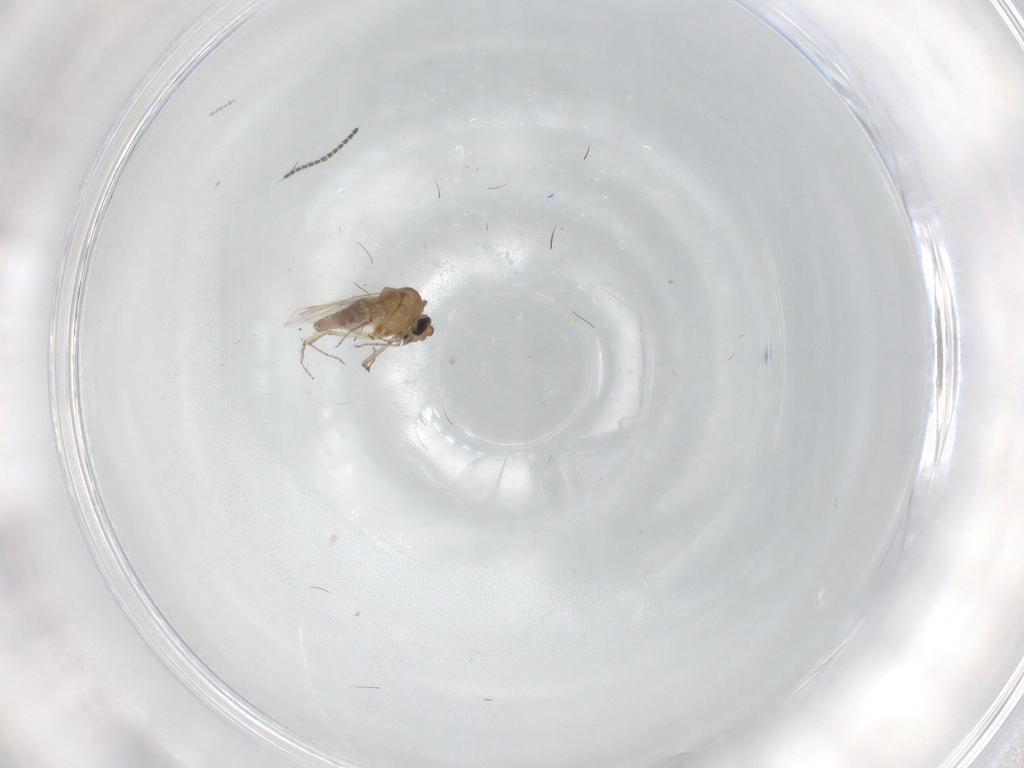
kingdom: Animalia
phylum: Arthropoda
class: Insecta
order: Diptera
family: Sciaridae
